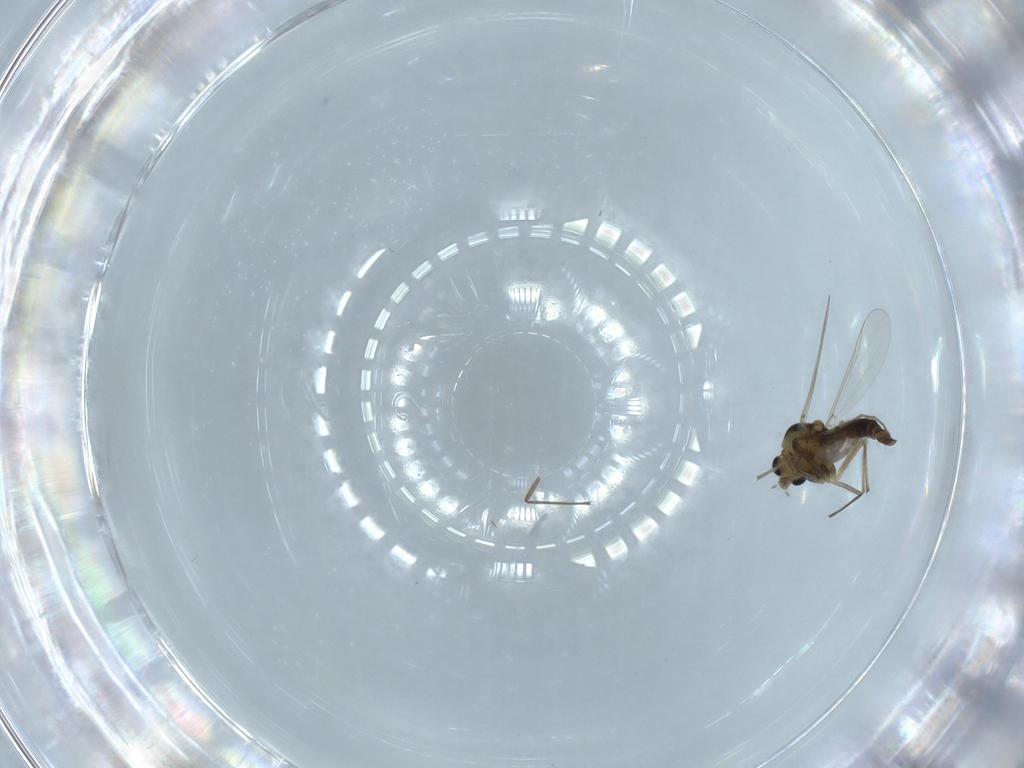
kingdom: Animalia
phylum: Arthropoda
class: Insecta
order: Diptera
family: Chironomidae
